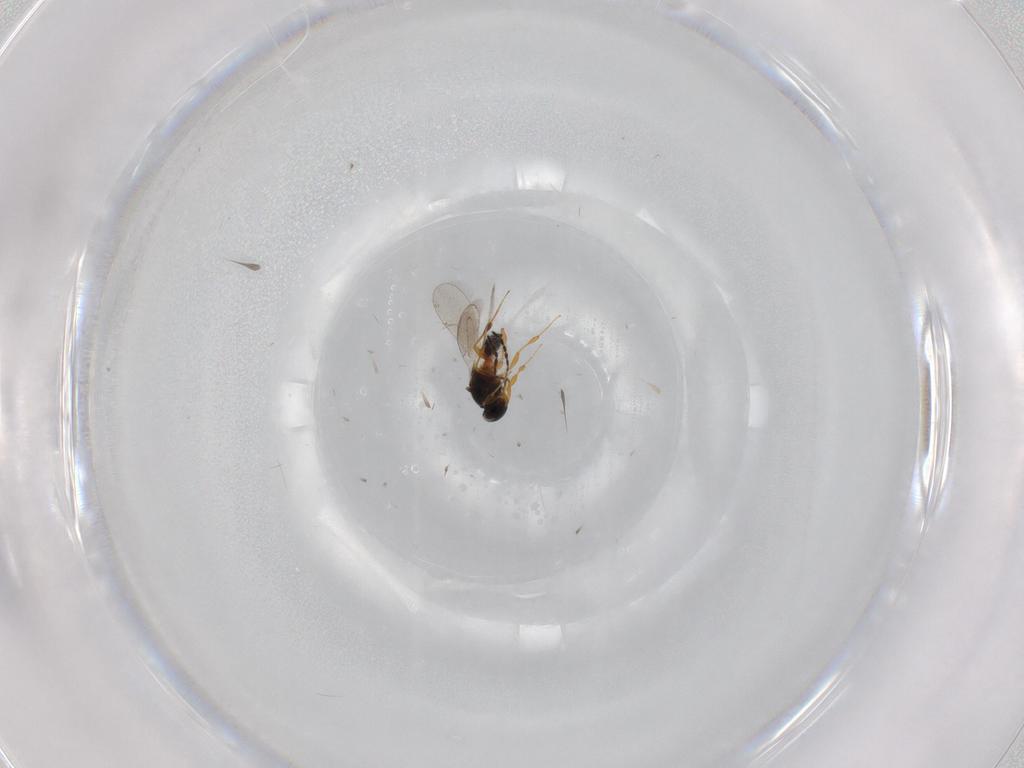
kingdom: Animalia
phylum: Arthropoda
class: Insecta
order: Hymenoptera
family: Platygastridae
